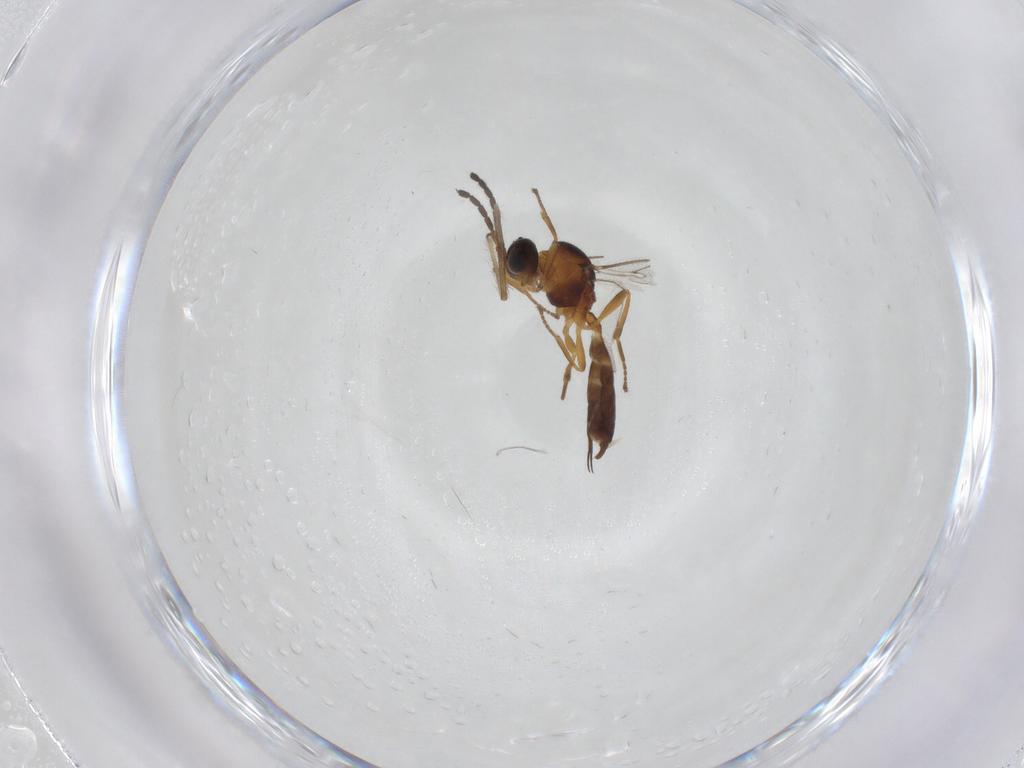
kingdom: Animalia
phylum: Arthropoda
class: Insecta
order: Hymenoptera
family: Braconidae
